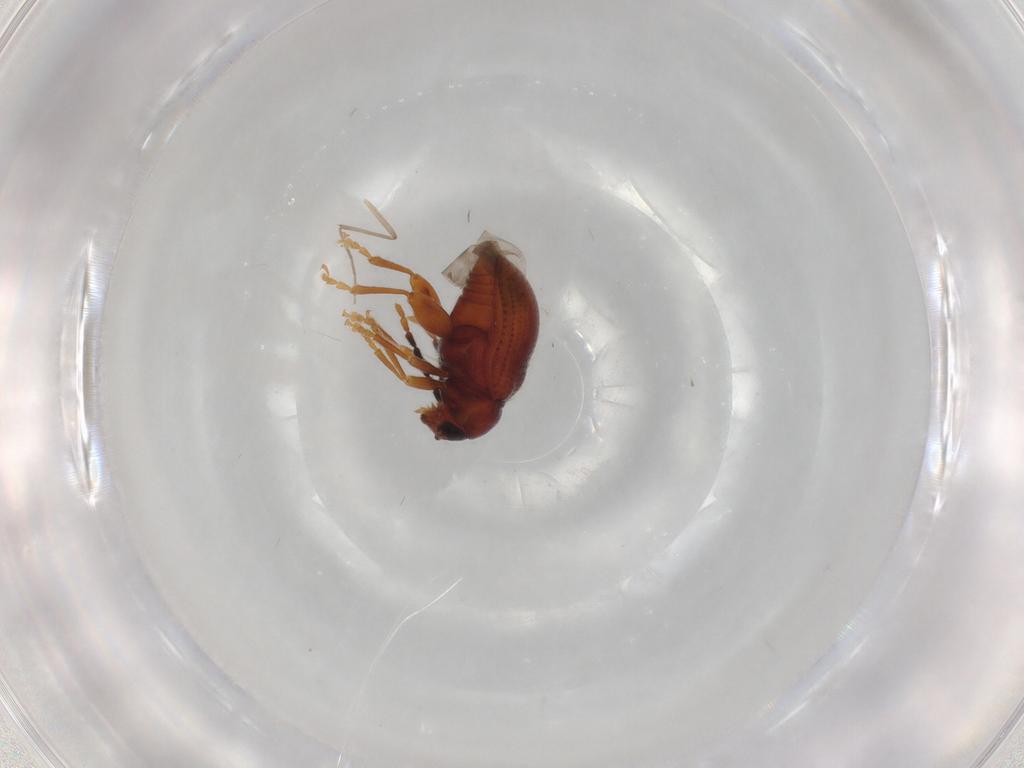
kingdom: Animalia
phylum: Arthropoda
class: Insecta
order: Coleoptera
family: Chrysomelidae
